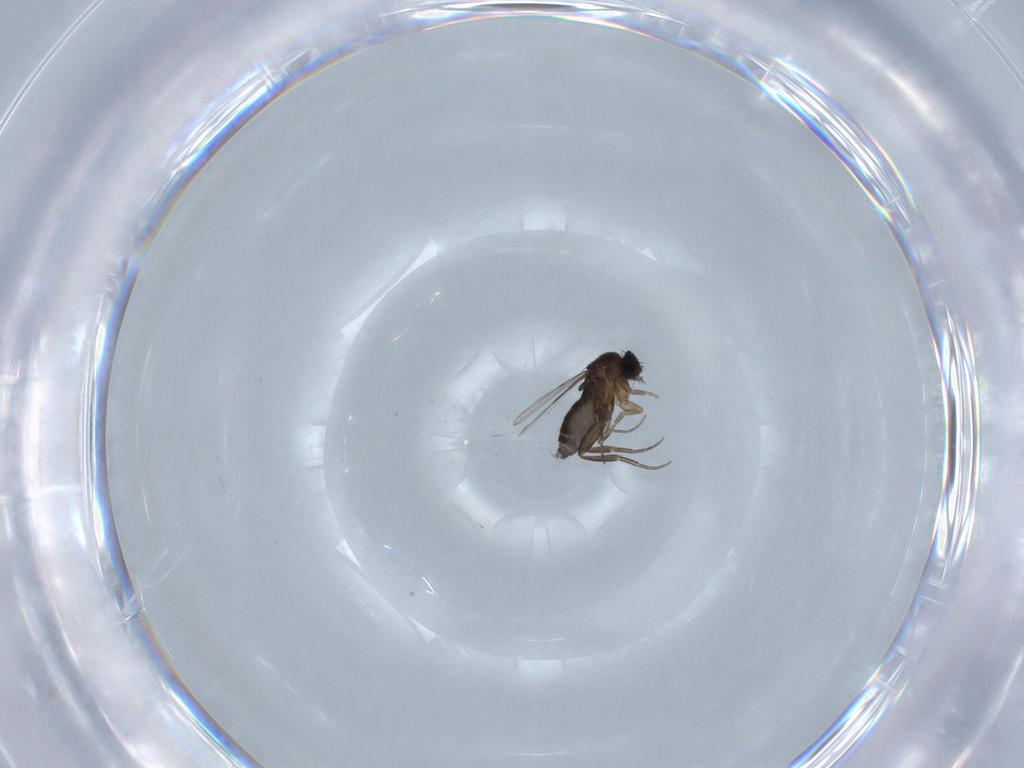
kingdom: Animalia
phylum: Arthropoda
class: Insecta
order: Diptera
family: Phoridae
